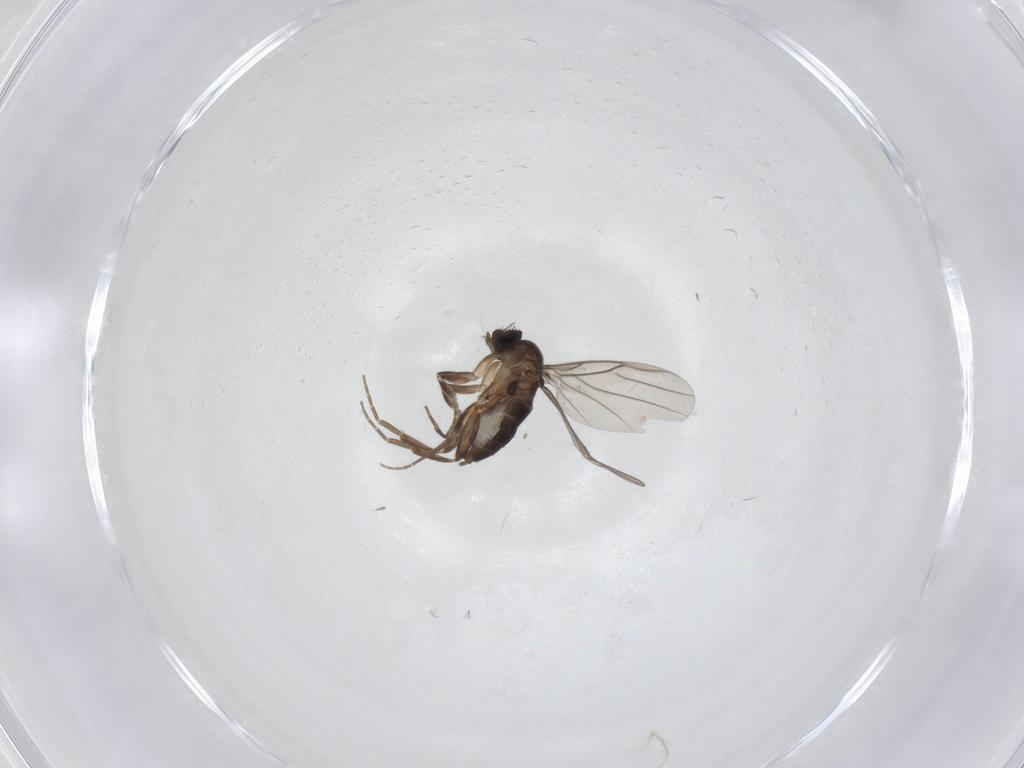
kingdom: Animalia
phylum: Arthropoda
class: Insecta
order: Diptera
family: Phoridae
